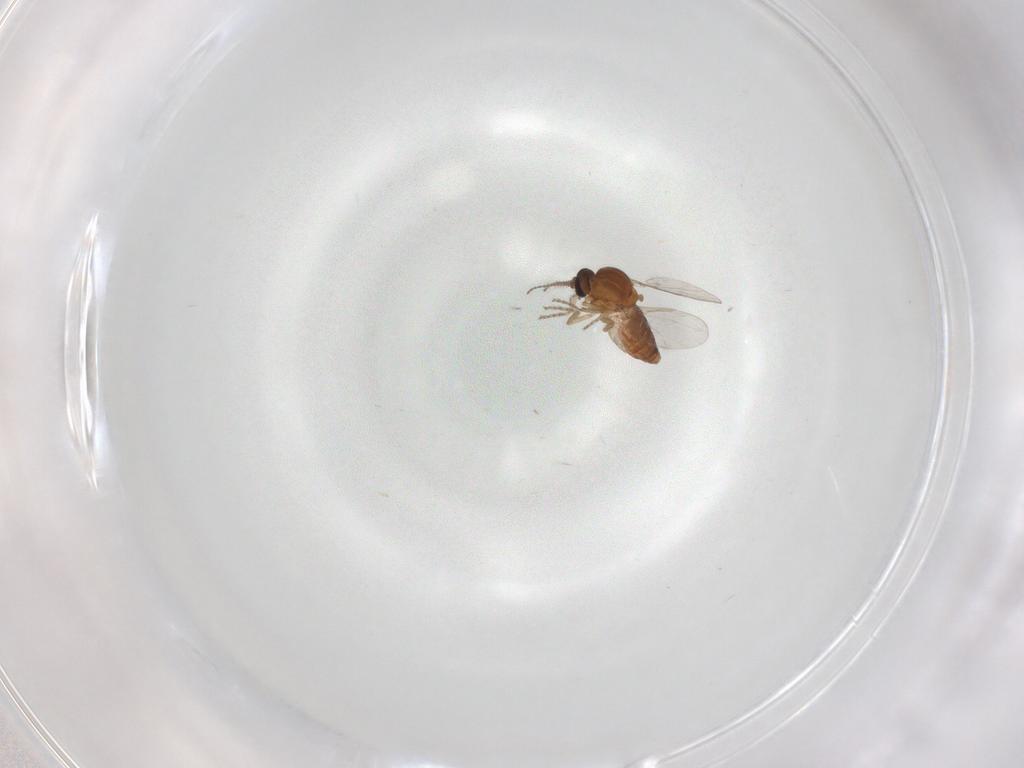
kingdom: Animalia
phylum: Arthropoda
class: Insecta
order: Diptera
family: Ceratopogonidae
